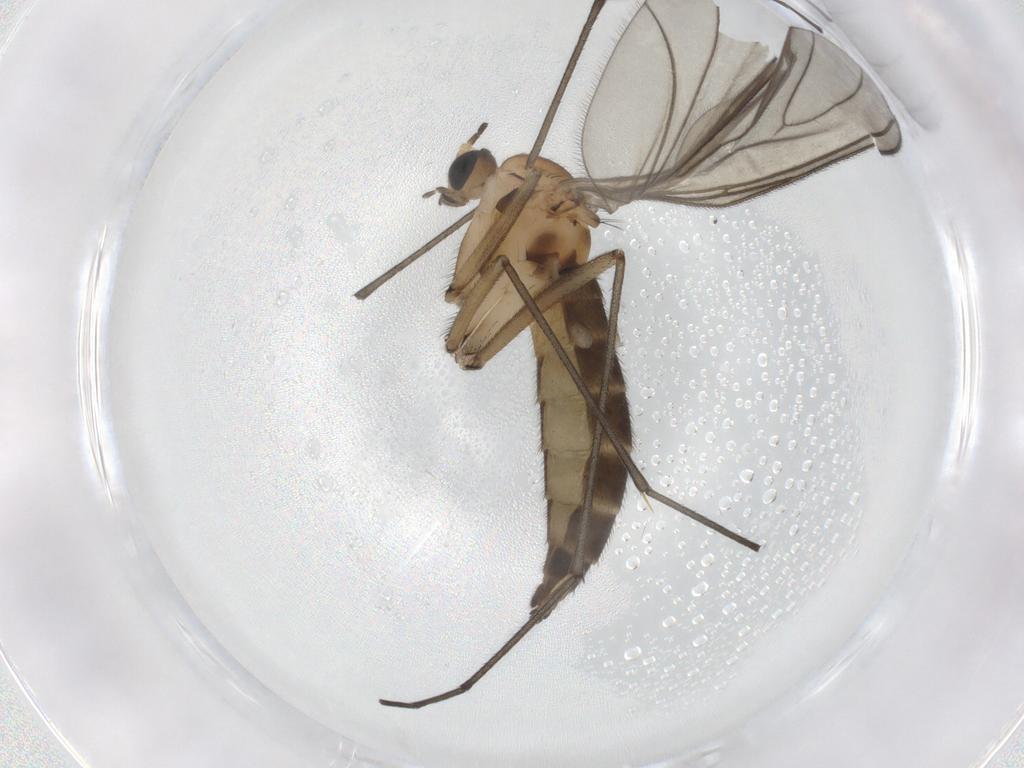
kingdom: Animalia
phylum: Arthropoda
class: Insecta
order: Diptera
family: Sciaridae
